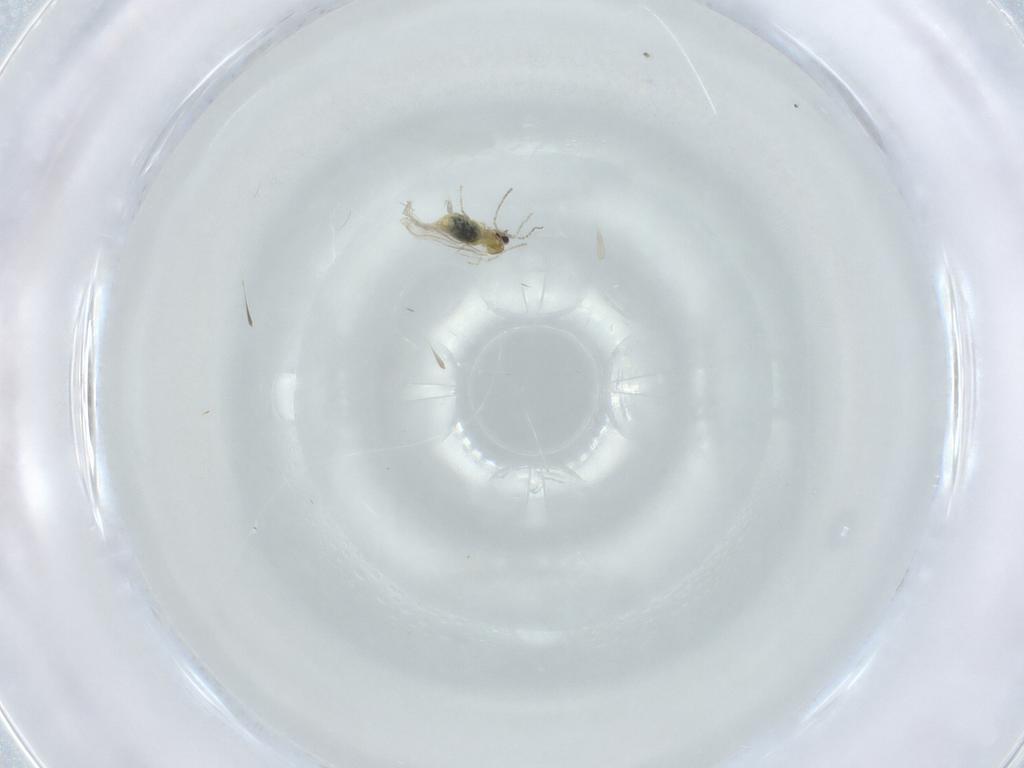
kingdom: Animalia
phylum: Arthropoda
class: Insecta
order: Diptera
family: Cecidomyiidae
